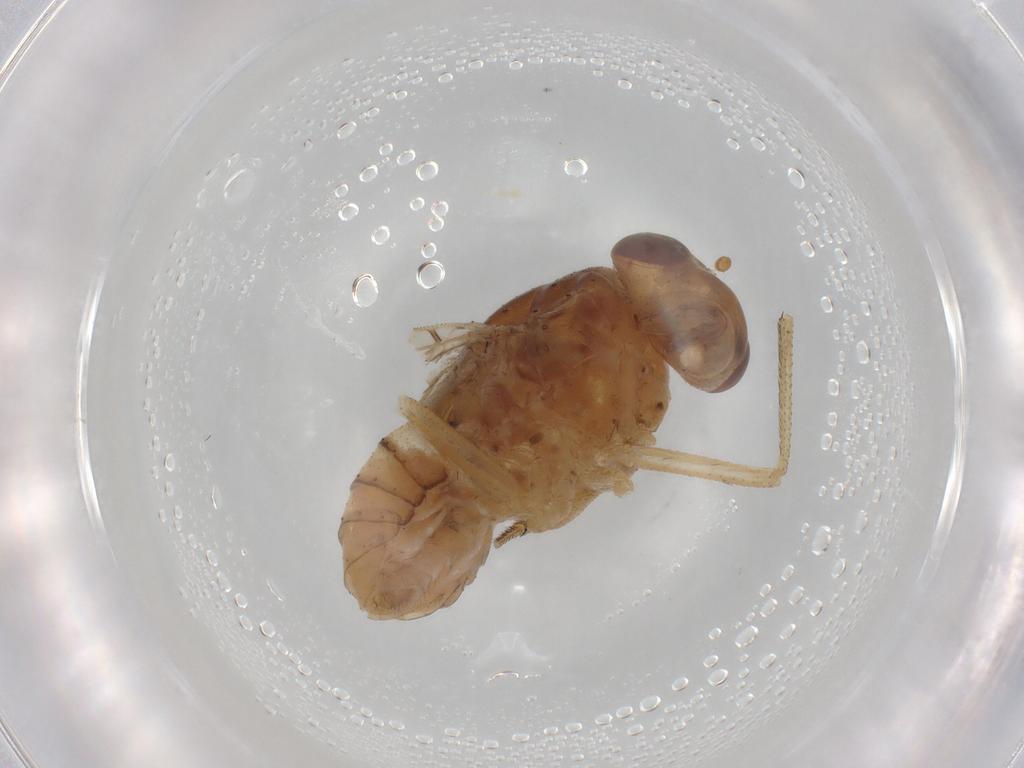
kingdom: Animalia
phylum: Arthropoda
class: Insecta
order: Diptera
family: Ephydridae
